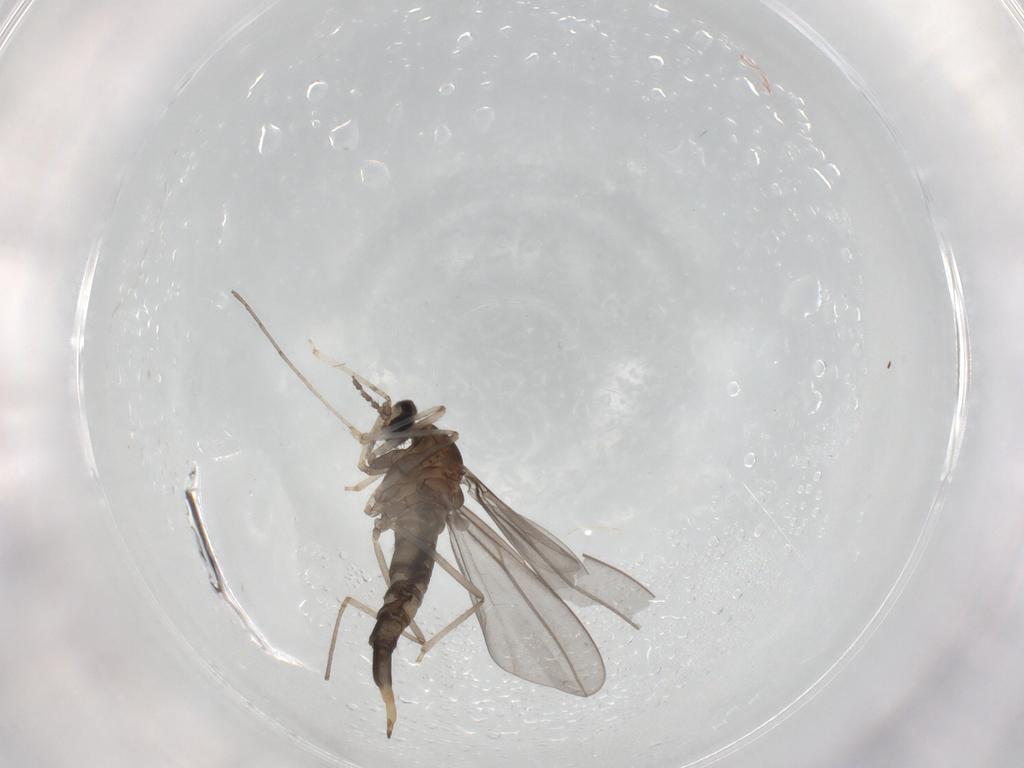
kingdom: Animalia
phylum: Arthropoda
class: Insecta
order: Diptera
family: Cecidomyiidae
